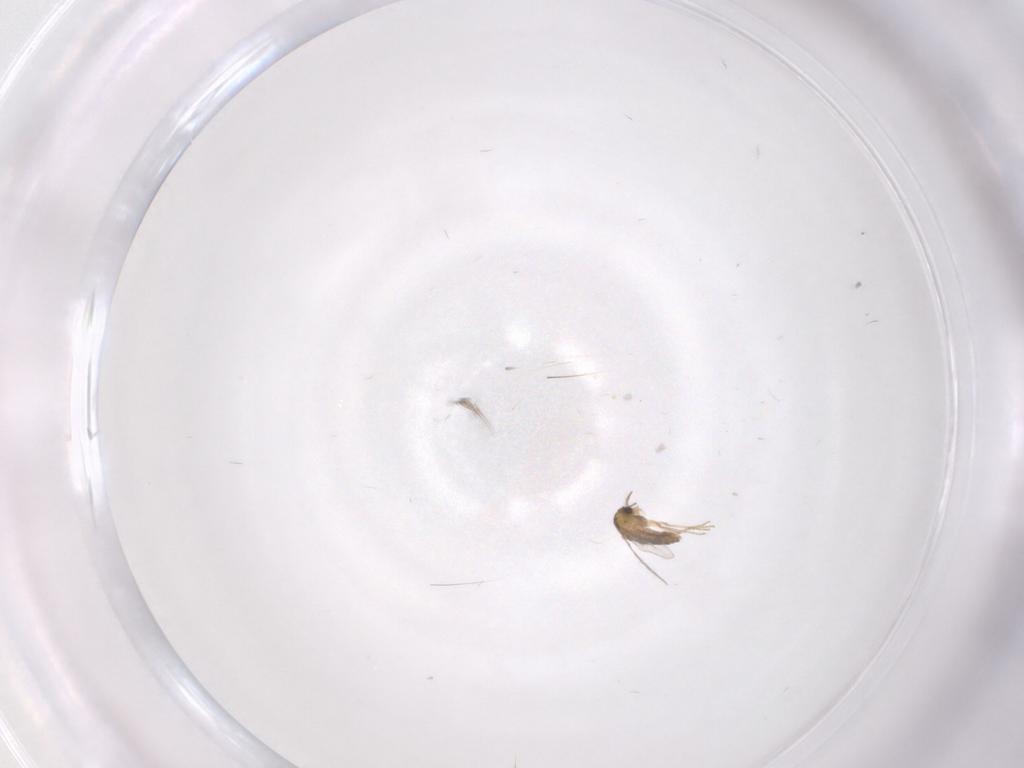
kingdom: Animalia
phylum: Arthropoda
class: Insecta
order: Diptera
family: Chironomidae
